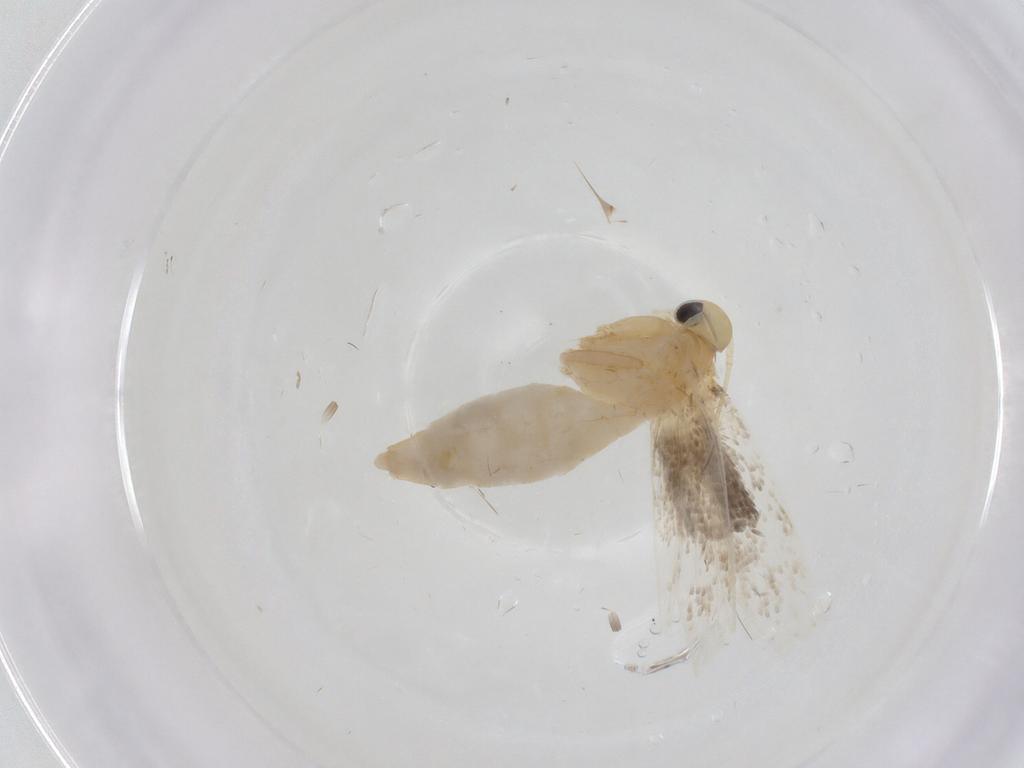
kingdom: Animalia
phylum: Arthropoda
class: Insecta
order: Lepidoptera
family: Erebidae
